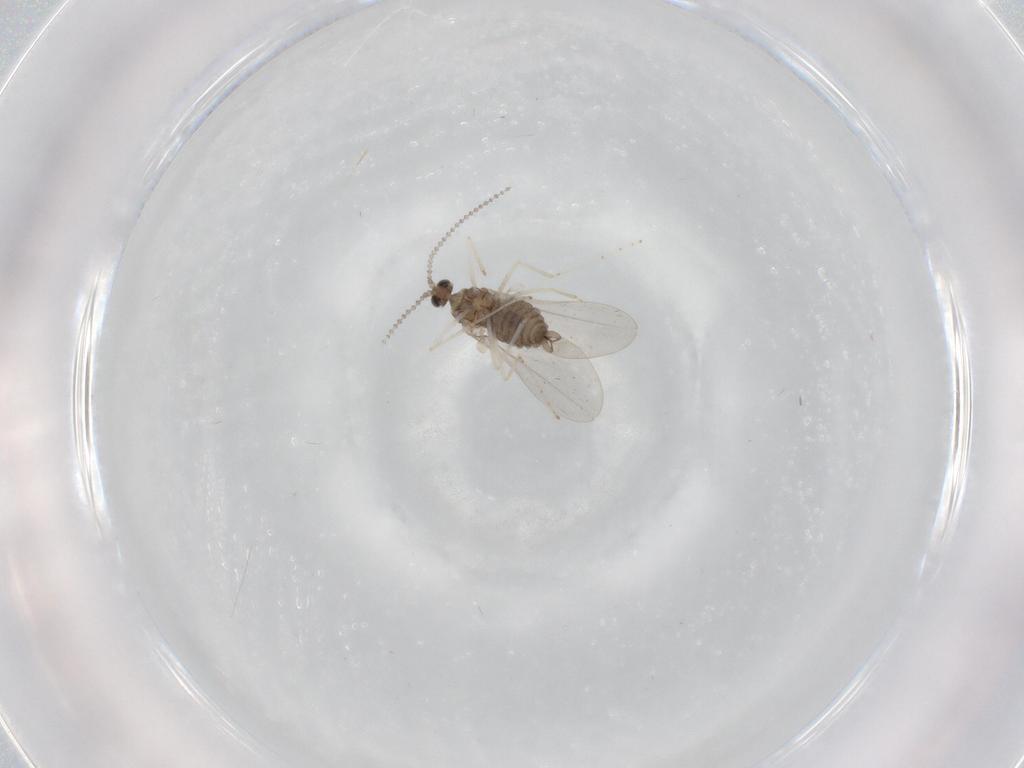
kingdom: Animalia
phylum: Arthropoda
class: Insecta
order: Diptera
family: Cecidomyiidae
